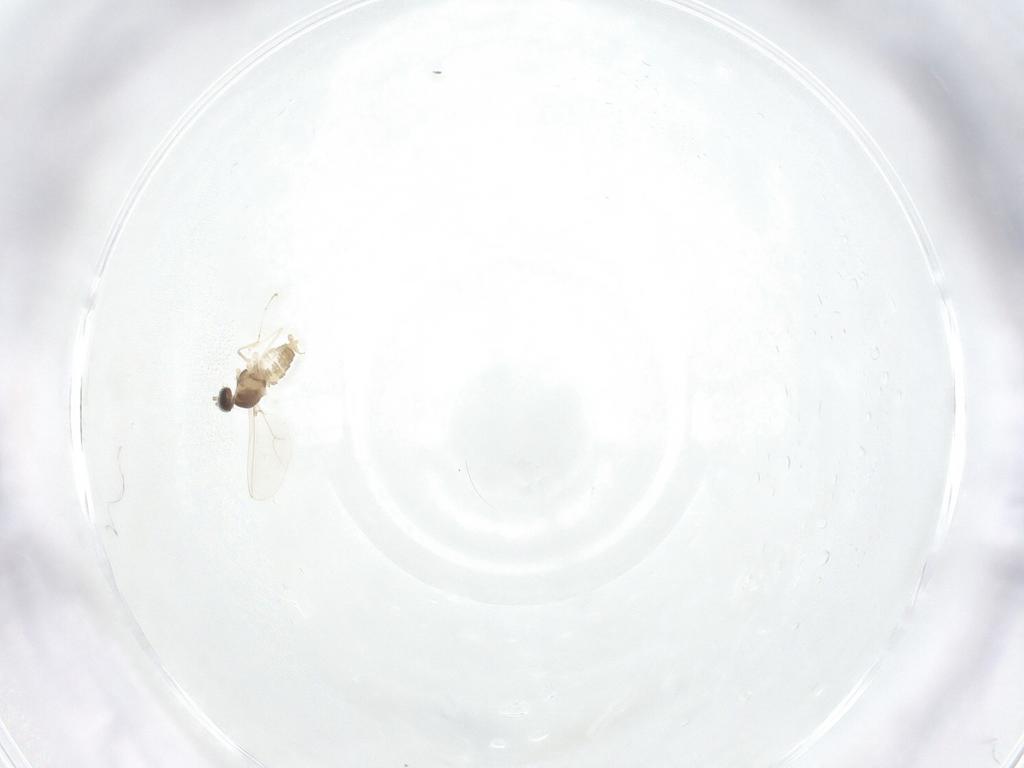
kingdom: Animalia
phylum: Arthropoda
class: Insecta
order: Diptera
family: Cecidomyiidae
